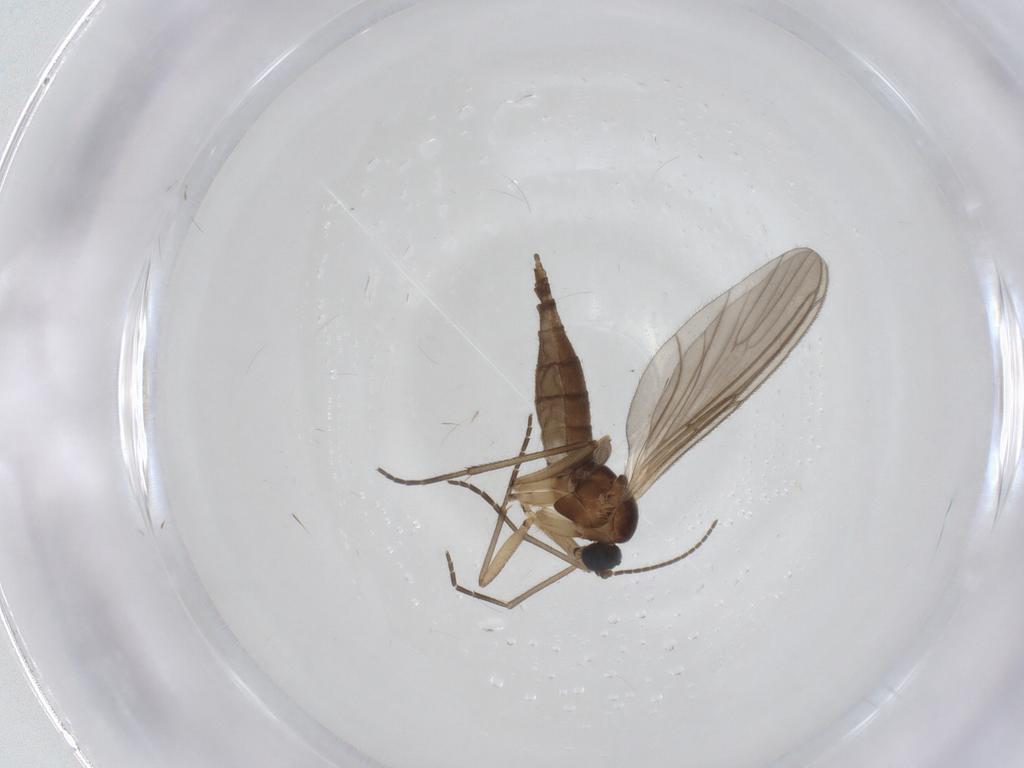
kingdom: Animalia
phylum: Arthropoda
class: Insecta
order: Diptera
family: Sciaridae
